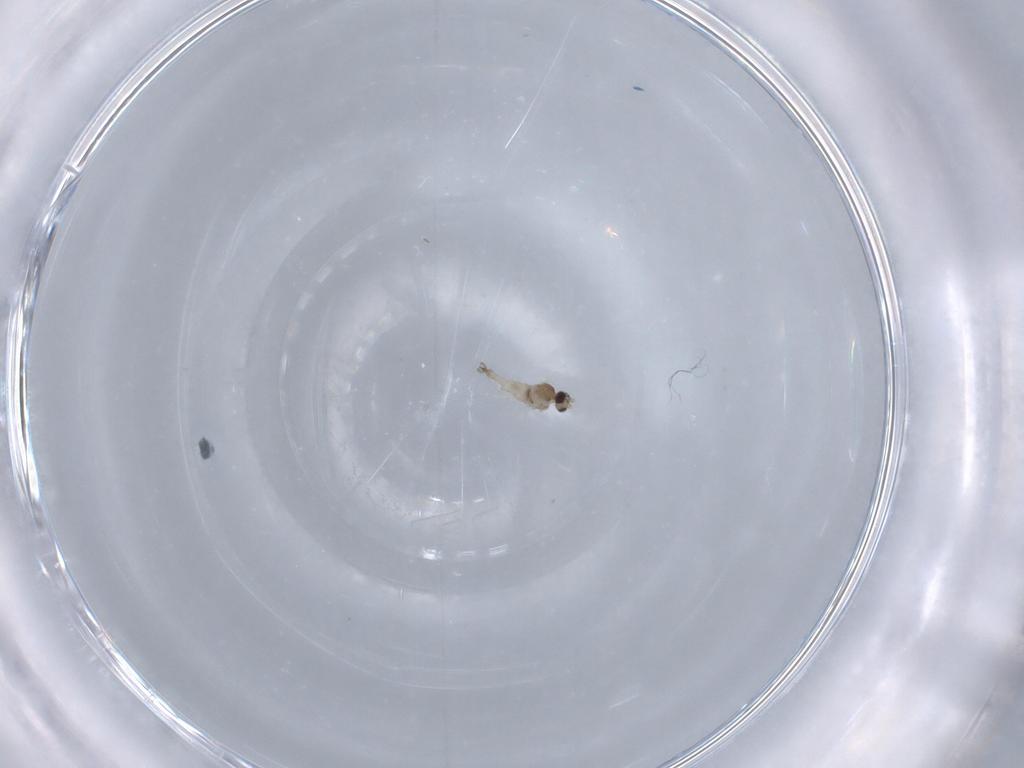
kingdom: Animalia
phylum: Arthropoda
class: Insecta
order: Diptera
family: Cecidomyiidae
